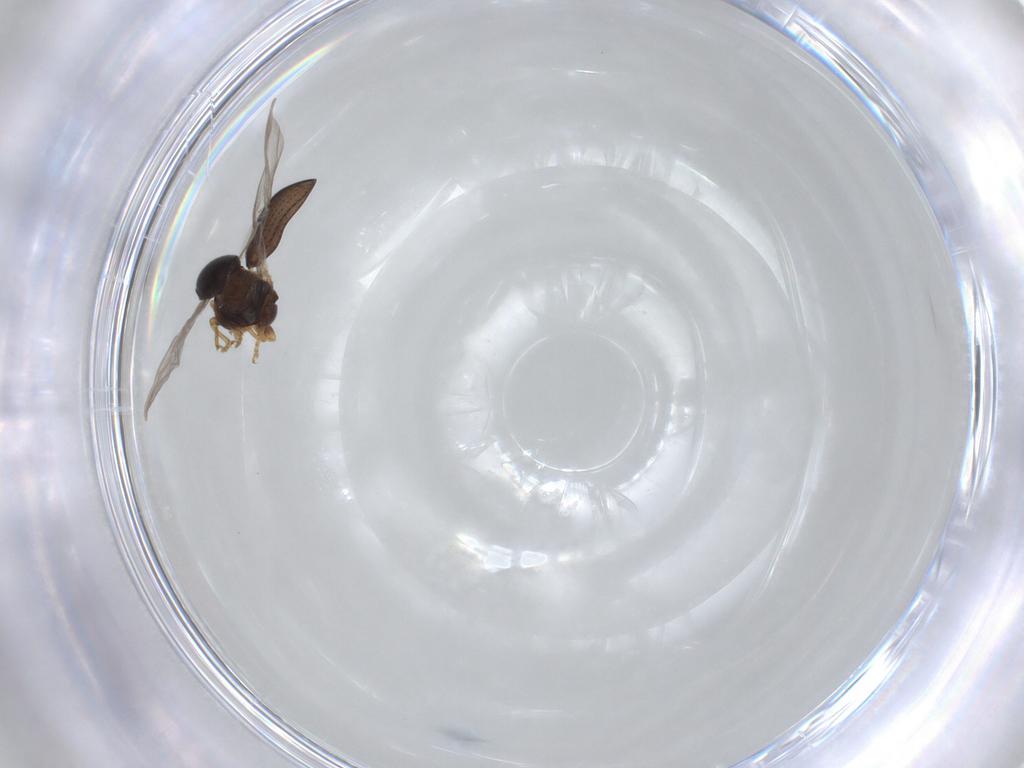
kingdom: Animalia
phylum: Arthropoda
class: Insecta
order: Coleoptera
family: Chrysomelidae
